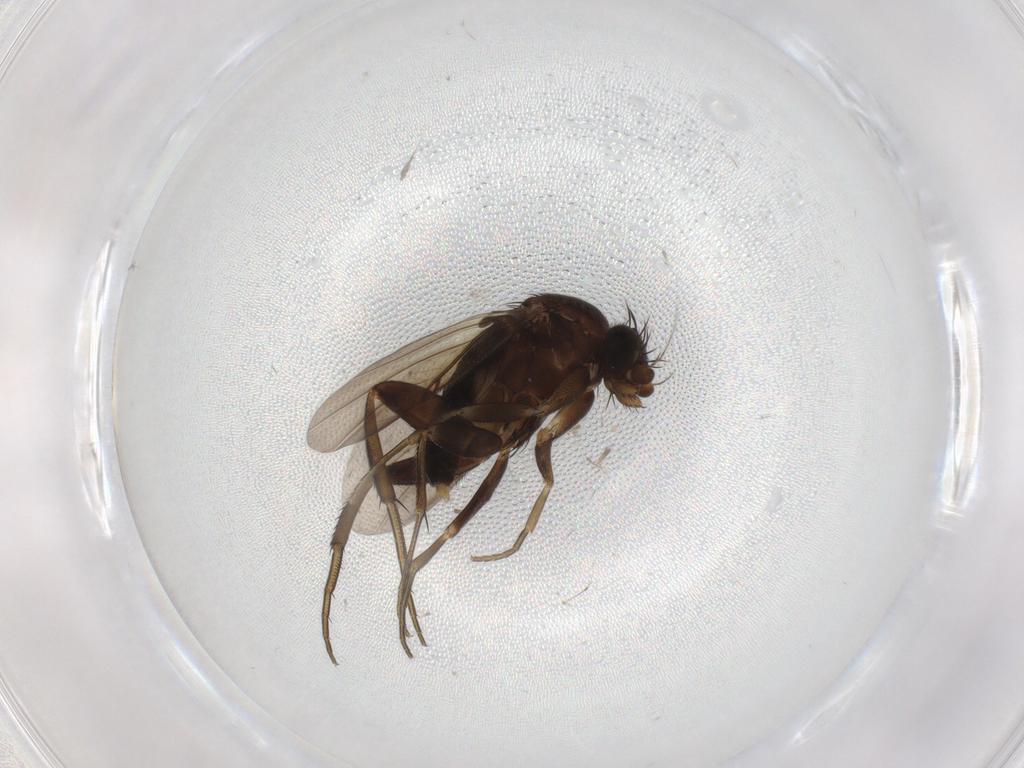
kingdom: Animalia
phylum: Arthropoda
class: Insecta
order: Diptera
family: Phoridae
